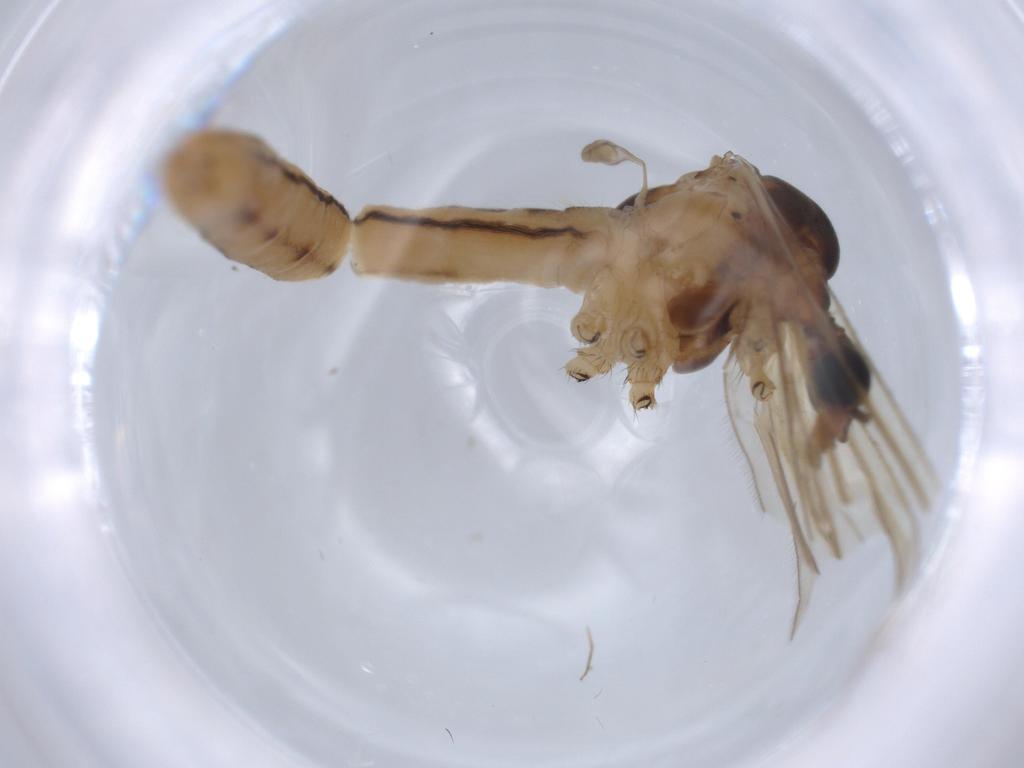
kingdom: Animalia
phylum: Arthropoda
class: Insecta
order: Diptera
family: Limoniidae
